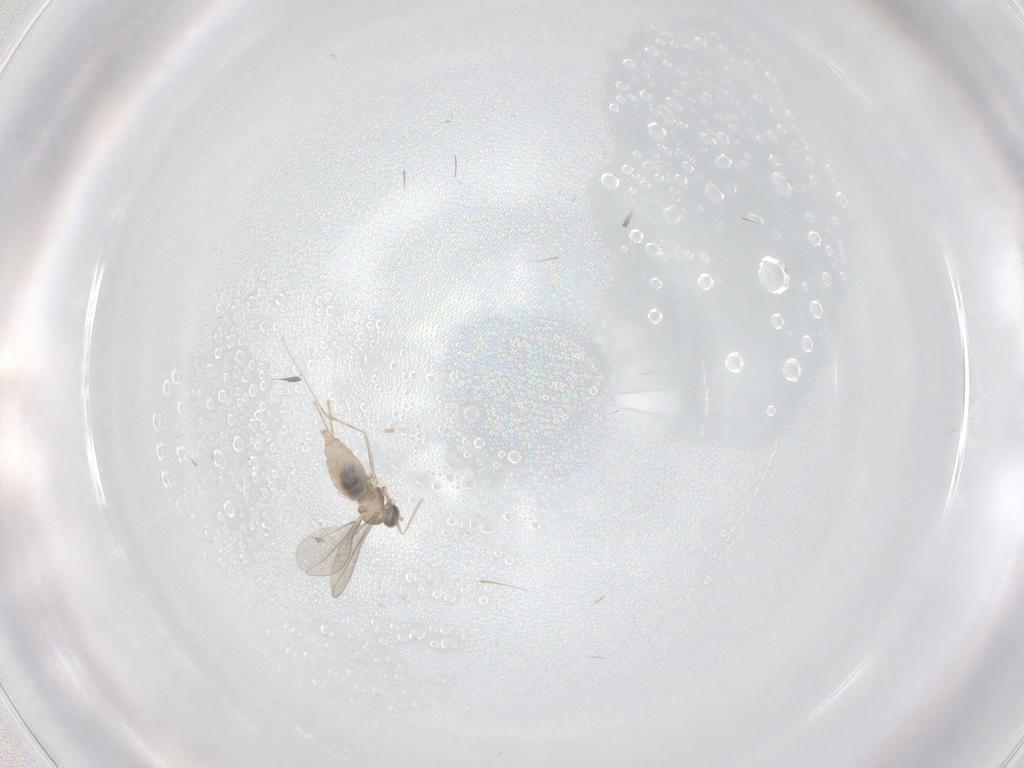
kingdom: Animalia
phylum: Arthropoda
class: Insecta
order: Diptera
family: Cecidomyiidae
